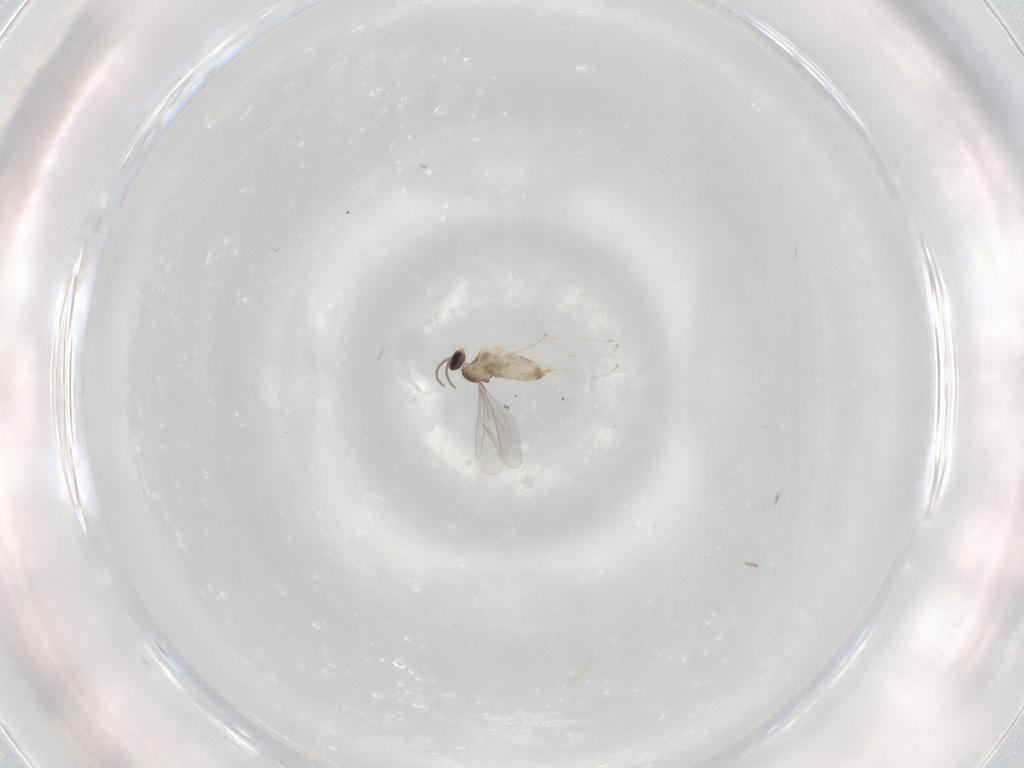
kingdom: Animalia
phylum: Arthropoda
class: Insecta
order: Diptera
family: Cecidomyiidae
